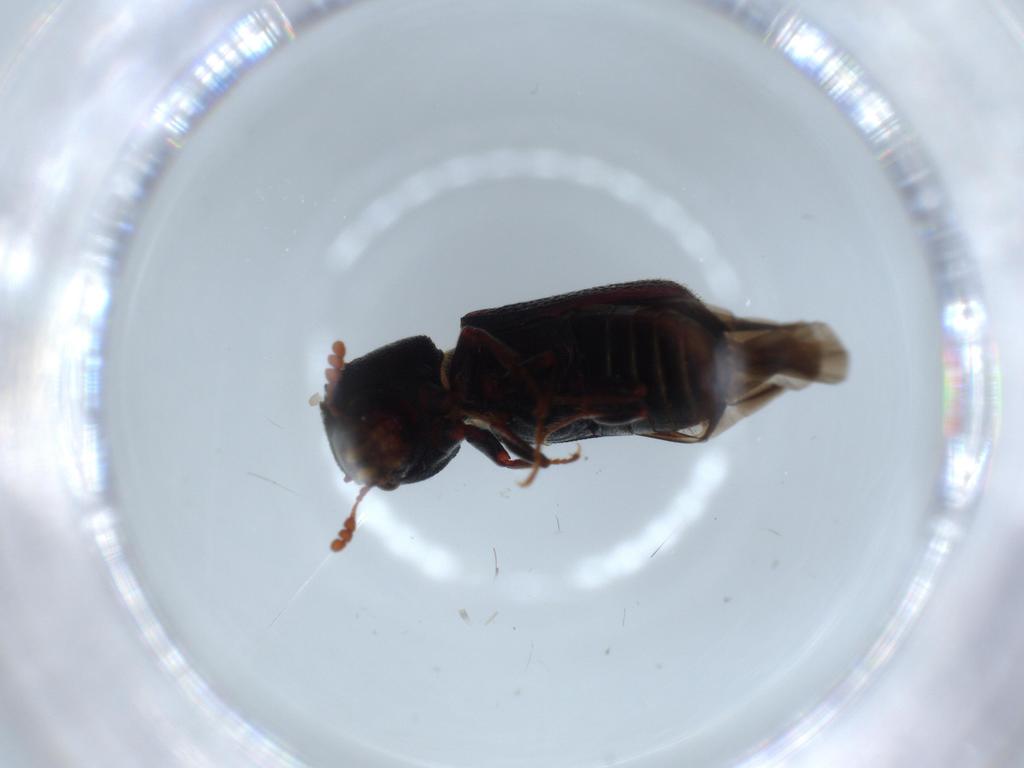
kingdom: Animalia
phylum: Arthropoda
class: Insecta
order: Coleoptera
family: Bostrichidae
